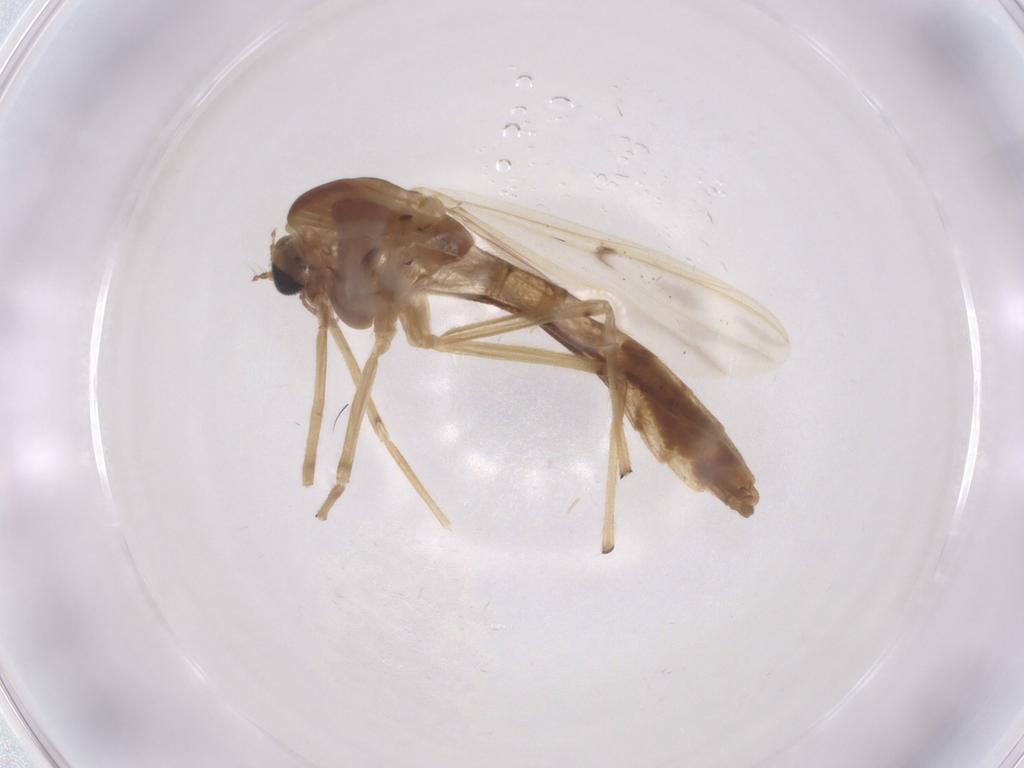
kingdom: Animalia
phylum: Arthropoda
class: Insecta
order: Diptera
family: Chironomidae
